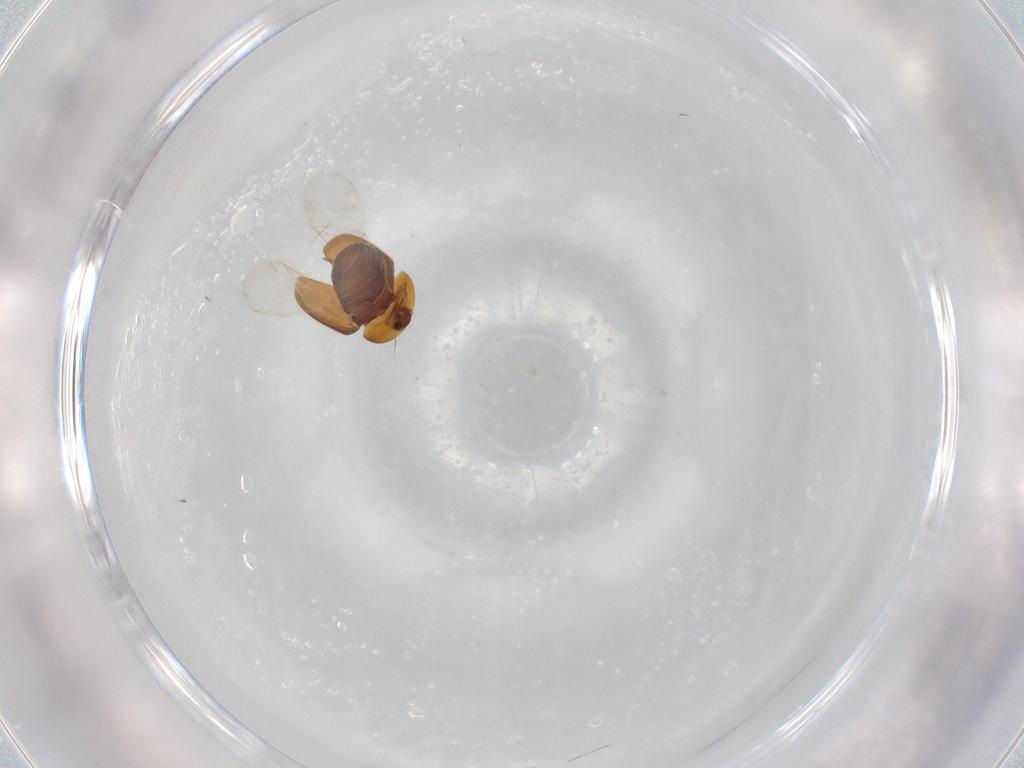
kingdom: Animalia
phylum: Arthropoda
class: Insecta
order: Coleoptera
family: Corylophidae
